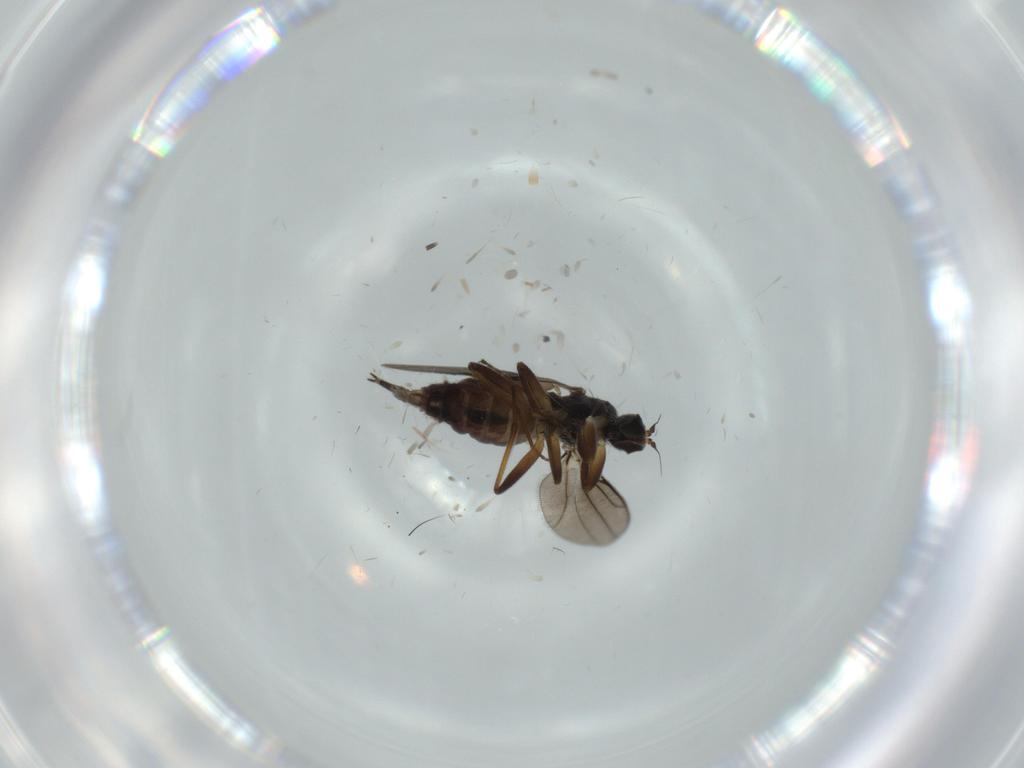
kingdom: Animalia
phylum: Arthropoda
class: Insecta
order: Diptera
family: Hybotidae
